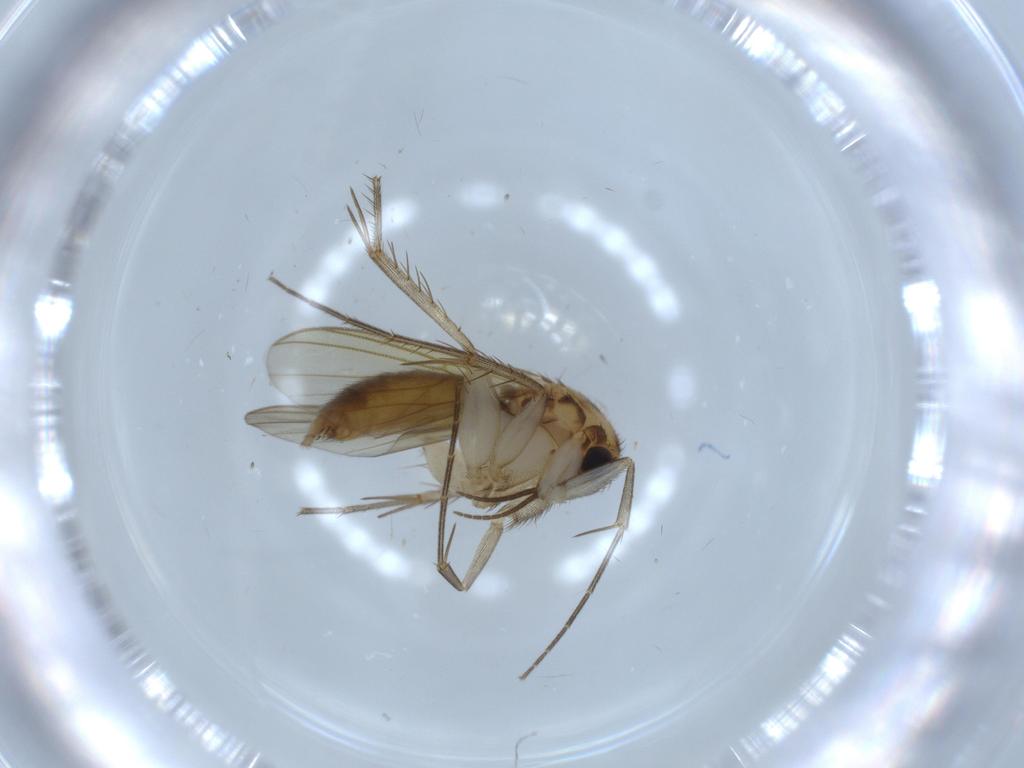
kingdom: Animalia
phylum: Arthropoda
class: Insecta
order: Diptera
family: Mycetophilidae
